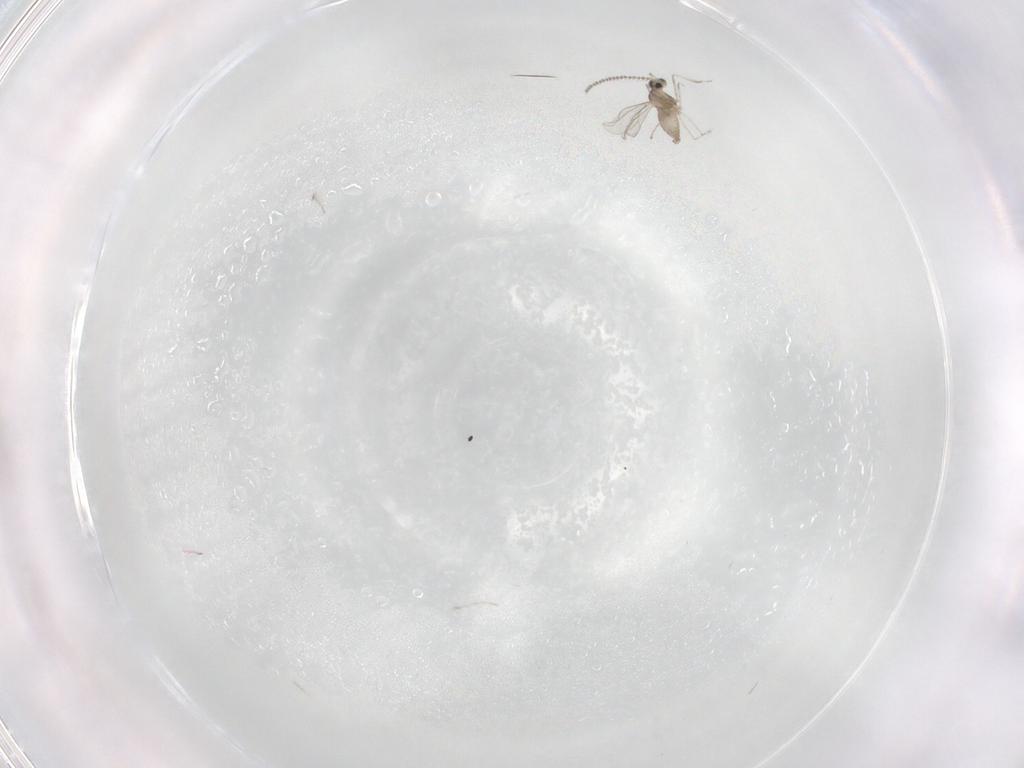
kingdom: Animalia
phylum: Arthropoda
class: Insecta
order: Diptera
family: Cecidomyiidae
